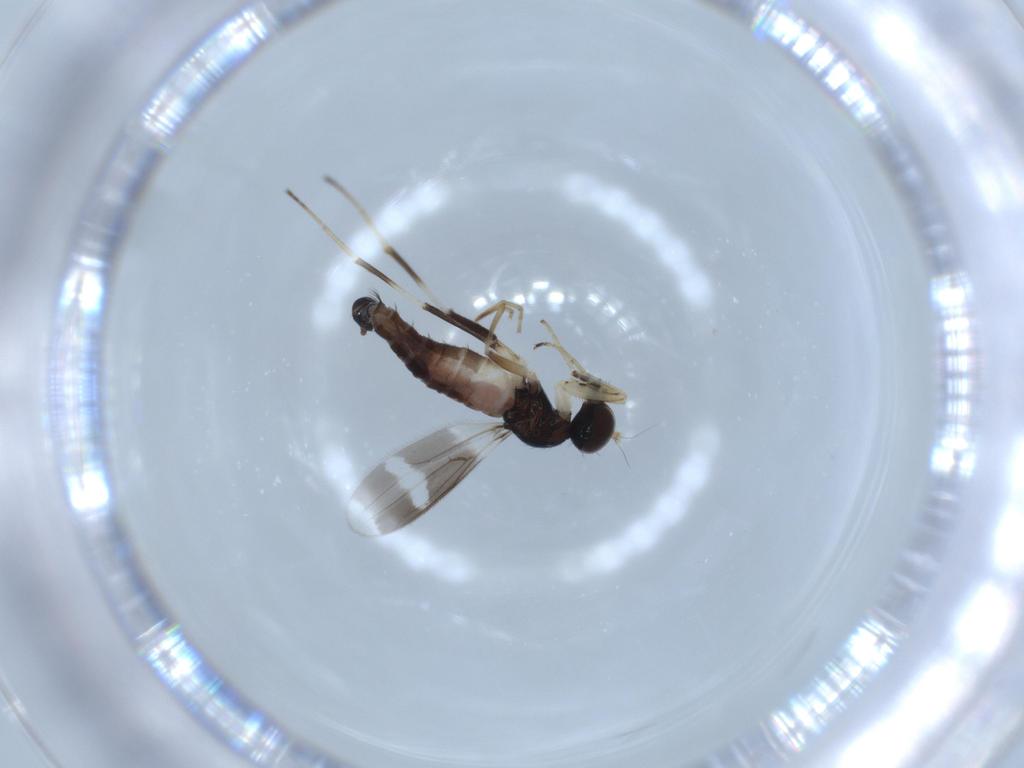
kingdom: Animalia
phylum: Arthropoda
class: Insecta
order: Diptera
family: Hybotidae
